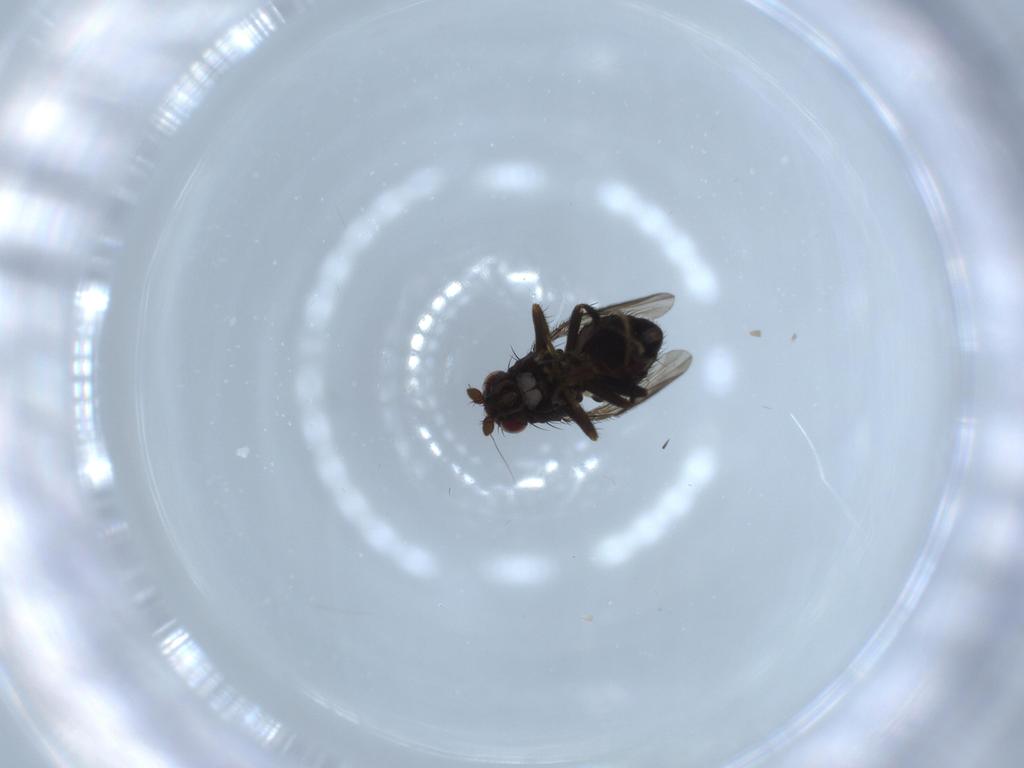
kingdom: Animalia
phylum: Arthropoda
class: Insecta
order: Diptera
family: Sphaeroceridae
